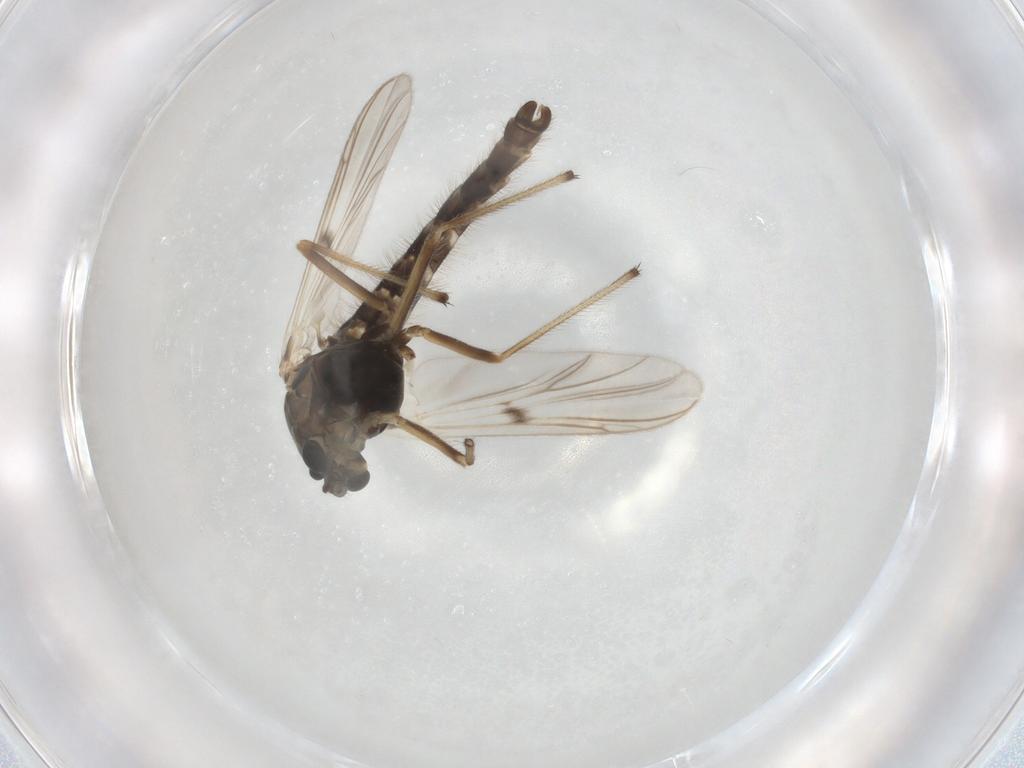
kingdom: Animalia
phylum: Arthropoda
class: Insecta
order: Diptera
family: Chironomidae
